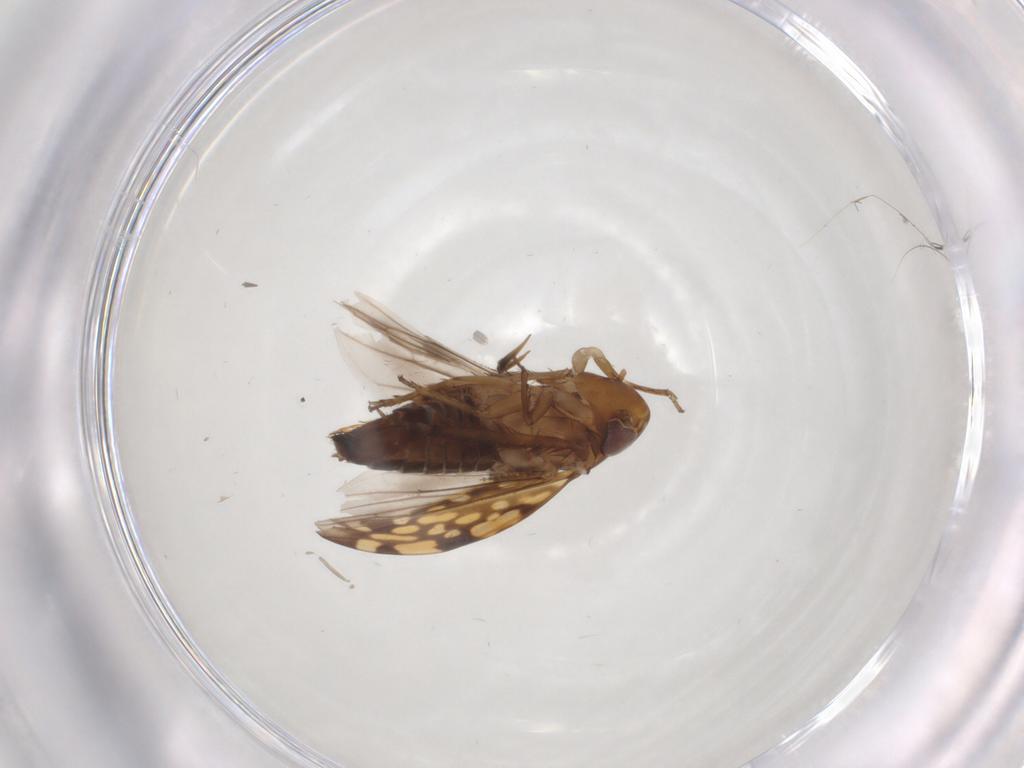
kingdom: Animalia
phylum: Arthropoda
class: Insecta
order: Hemiptera
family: Cicadellidae
